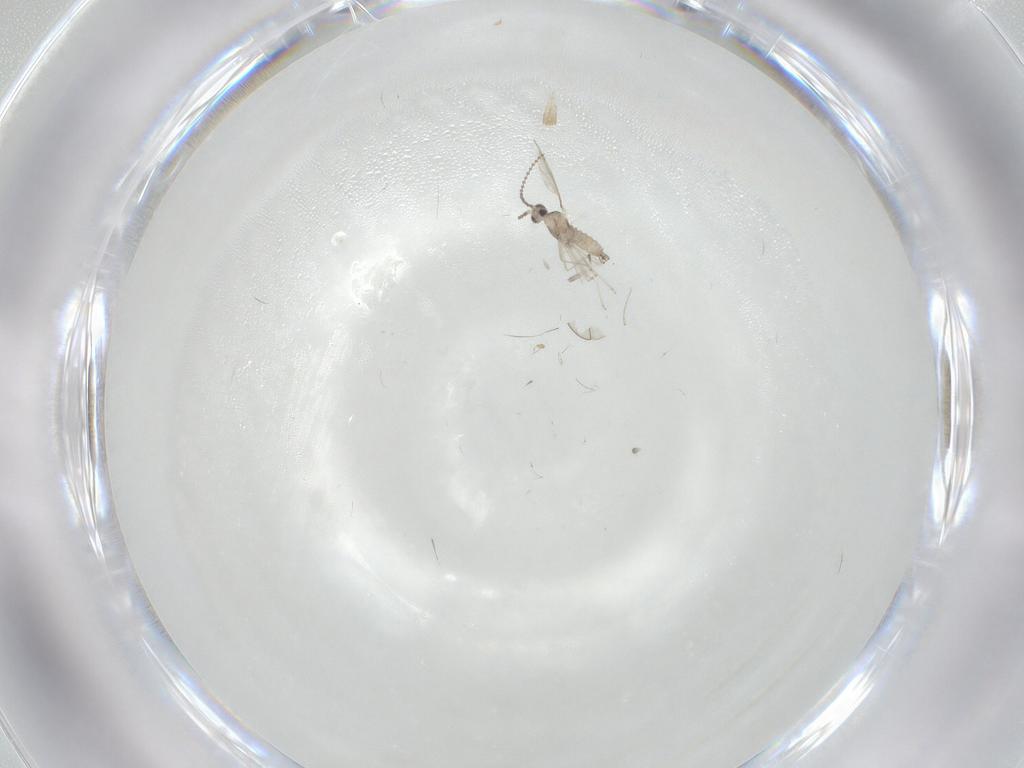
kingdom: Animalia
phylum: Arthropoda
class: Insecta
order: Diptera
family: Cecidomyiidae
